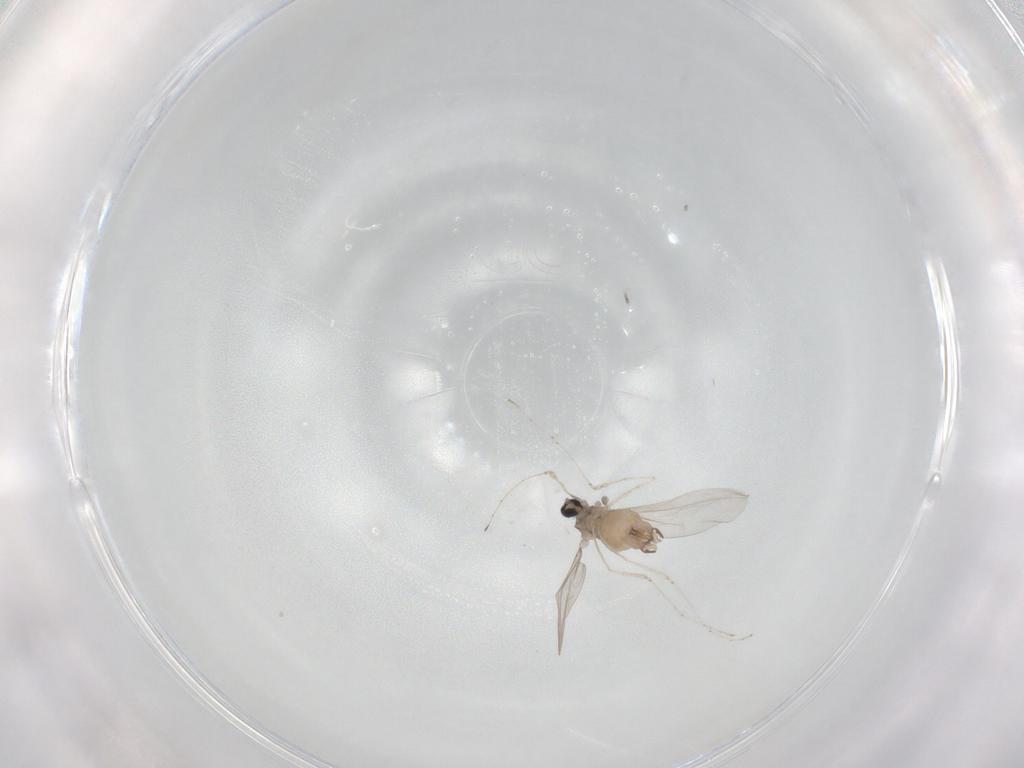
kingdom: Animalia
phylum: Arthropoda
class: Insecta
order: Diptera
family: Cecidomyiidae
